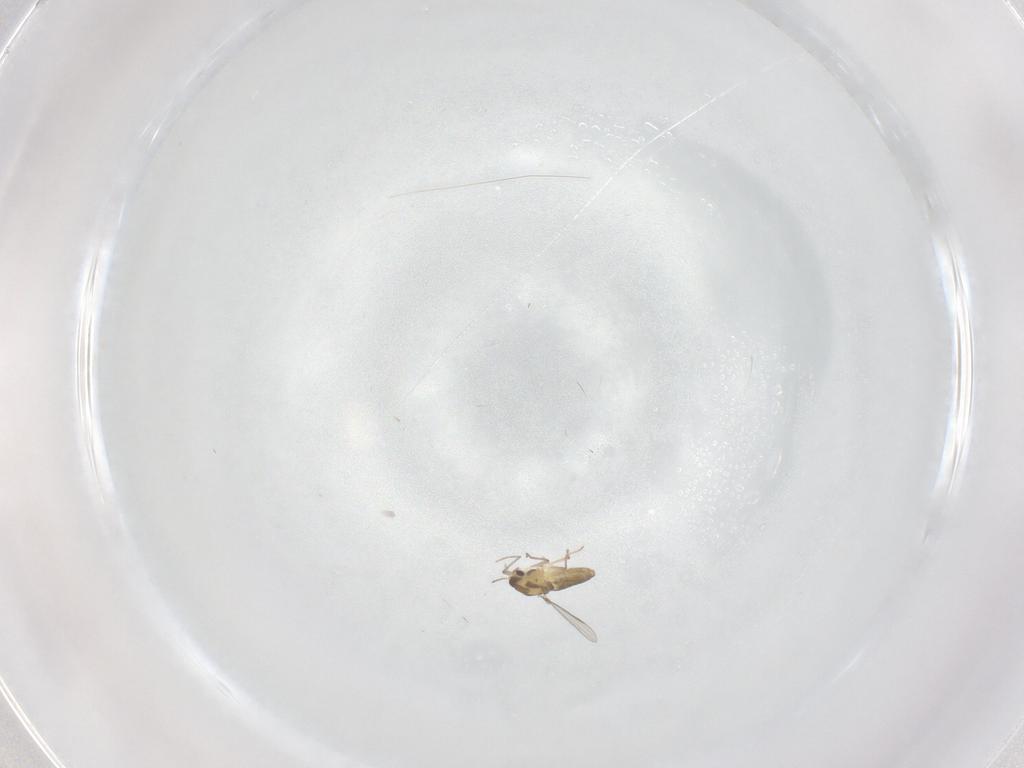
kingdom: Animalia
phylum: Arthropoda
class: Insecta
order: Diptera
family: Chironomidae
